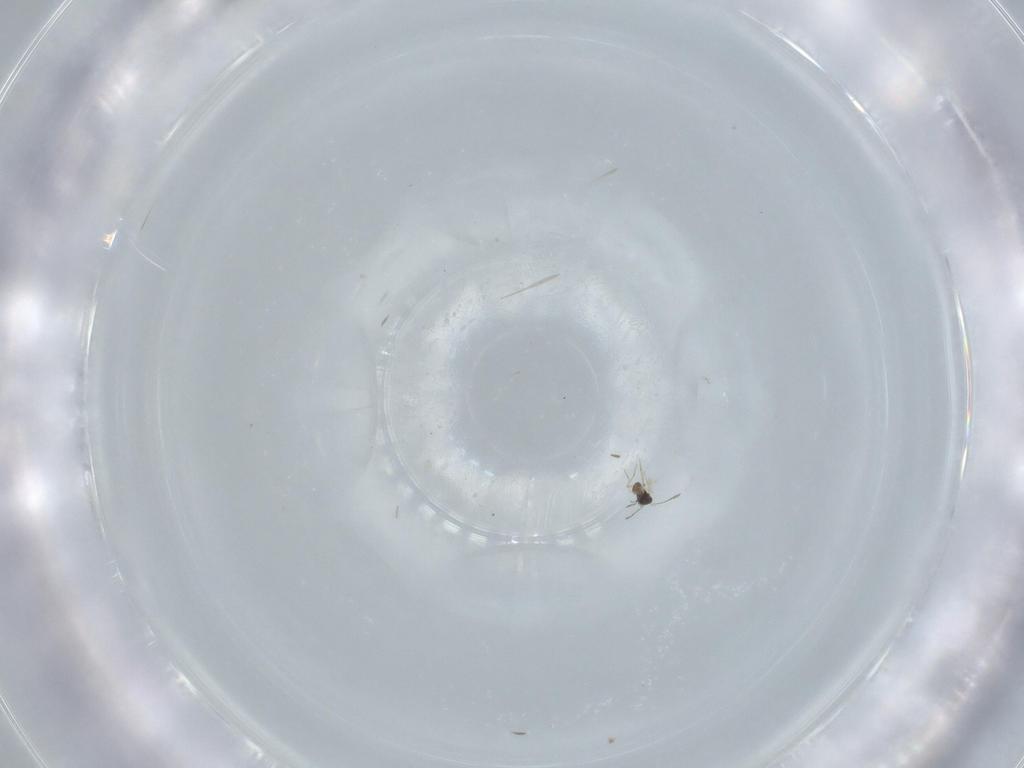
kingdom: Animalia
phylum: Arthropoda
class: Insecta
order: Hymenoptera
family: Mymaridae
